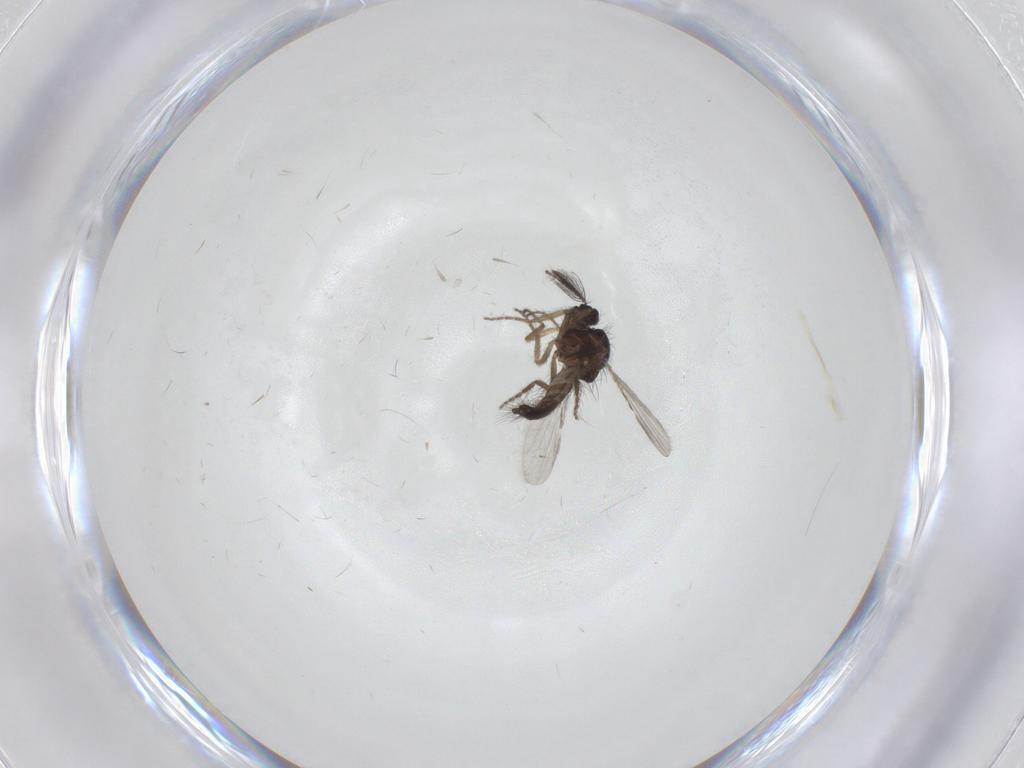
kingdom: Animalia
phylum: Arthropoda
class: Insecta
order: Diptera
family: Ceratopogonidae
